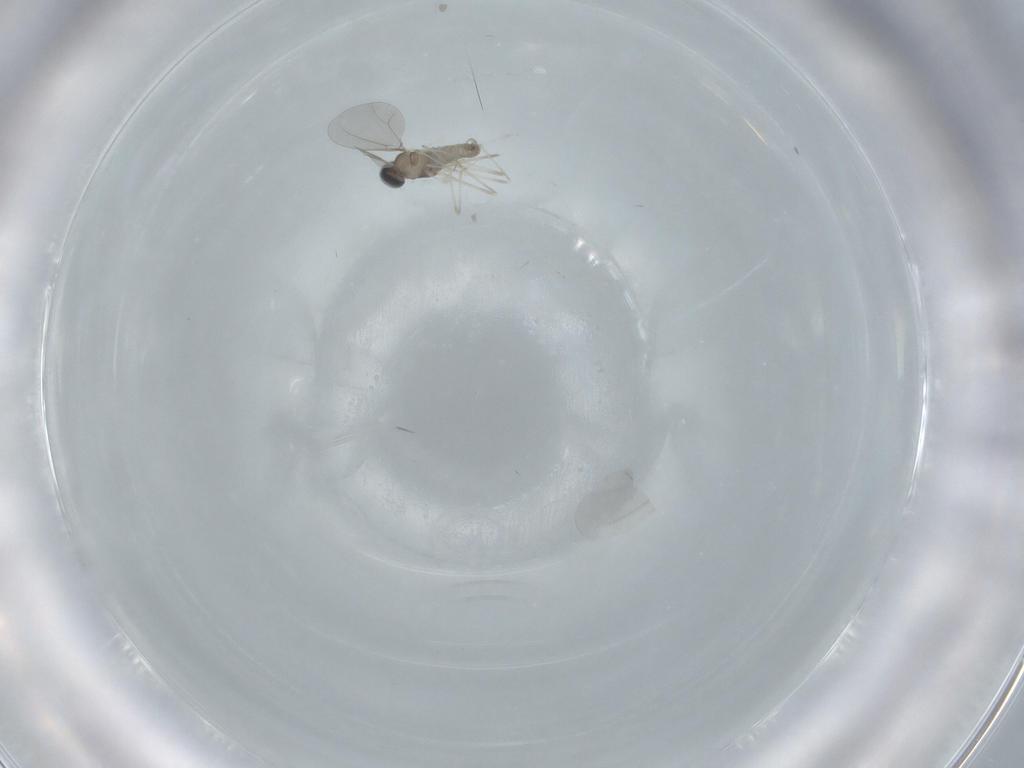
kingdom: Animalia
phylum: Arthropoda
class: Insecta
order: Diptera
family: Cecidomyiidae
